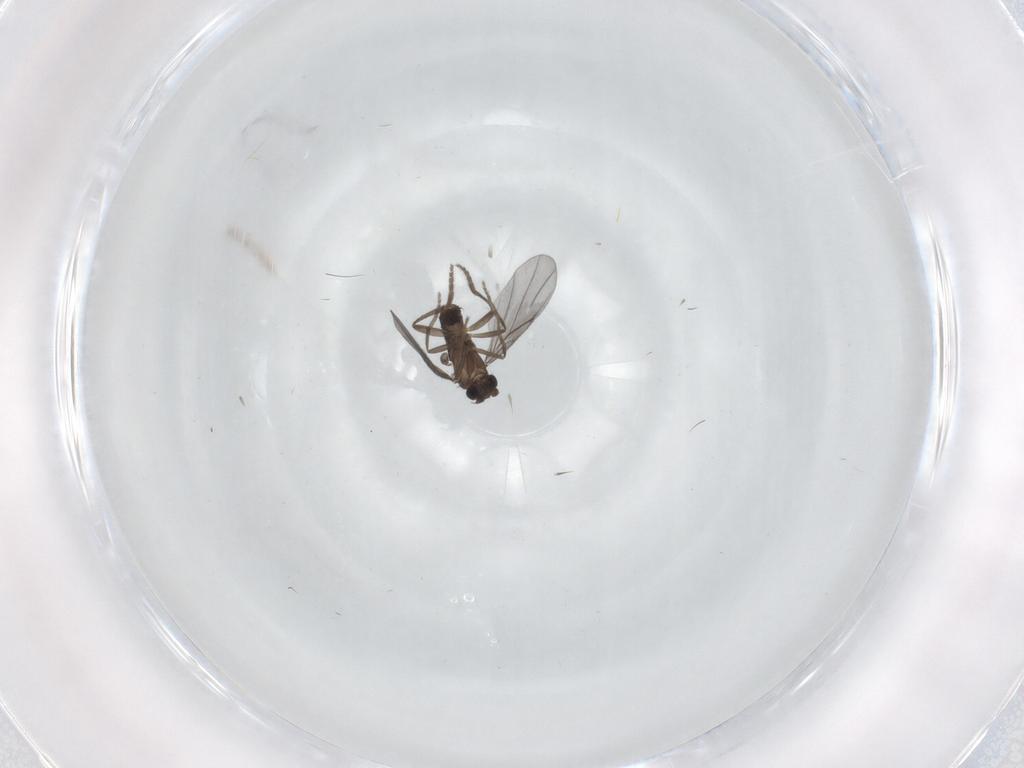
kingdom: Animalia
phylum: Arthropoda
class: Insecta
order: Diptera
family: Phoridae
